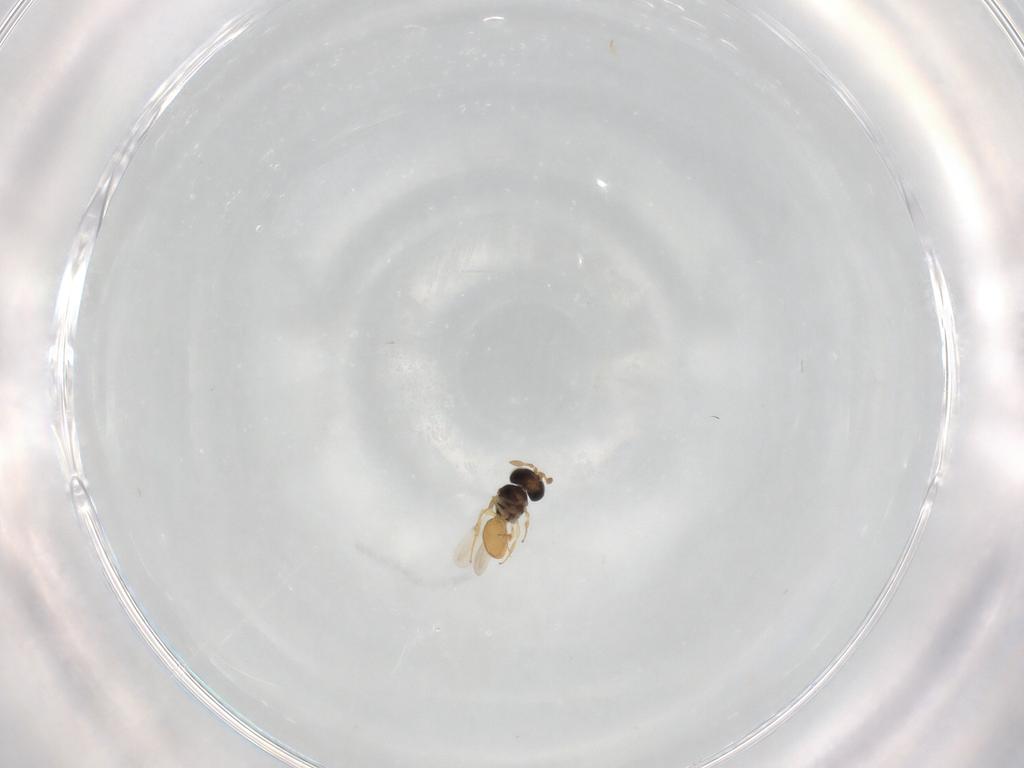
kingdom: Animalia
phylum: Arthropoda
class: Insecta
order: Hymenoptera
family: Scelionidae
